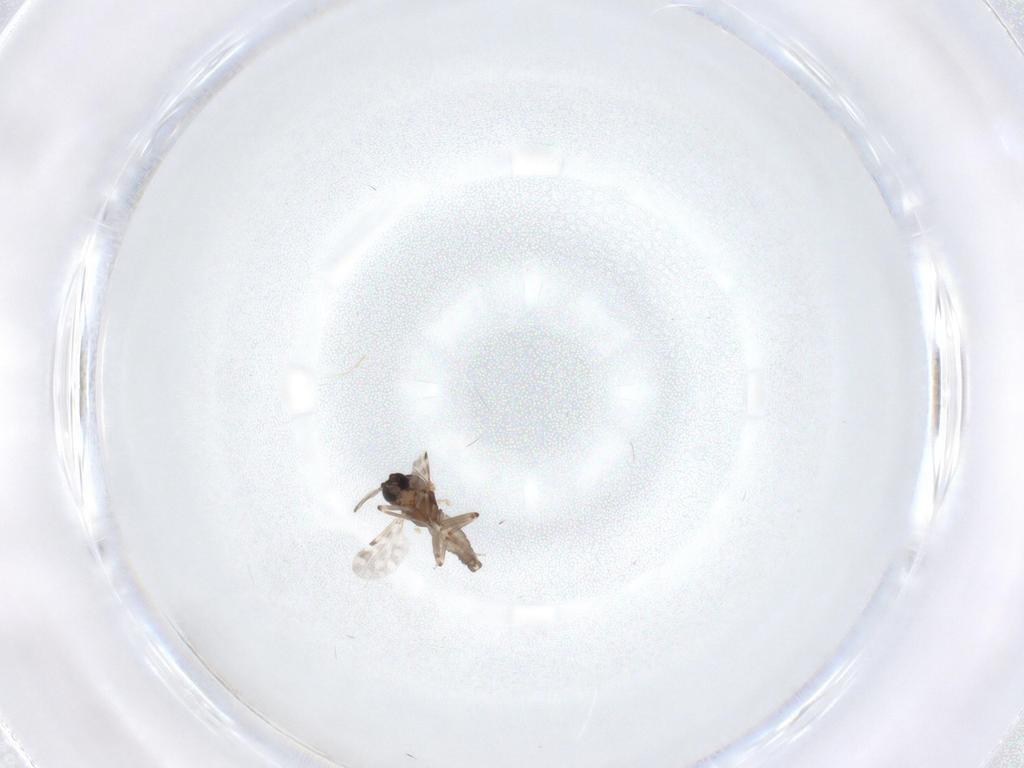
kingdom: Animalia
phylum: Arthropoda
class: Insecta
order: Diptera
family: Ceratopogonidae
